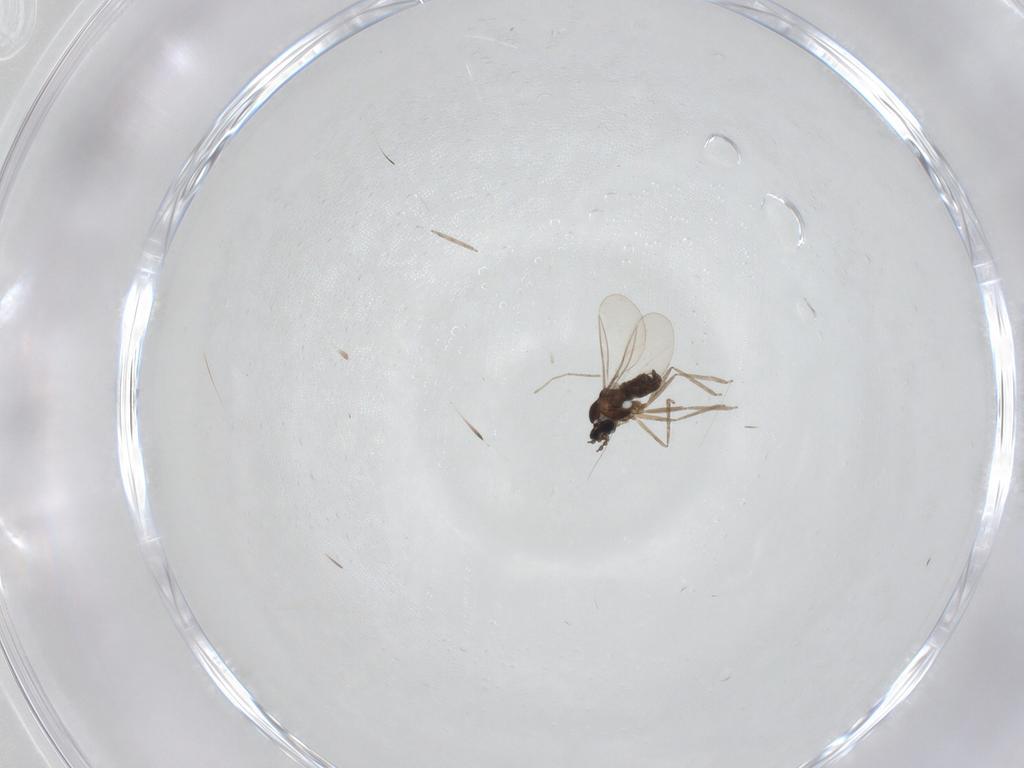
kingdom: Animalia
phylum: Arthropoda
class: Insecta
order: Diptera
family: Cecidomyiidae
